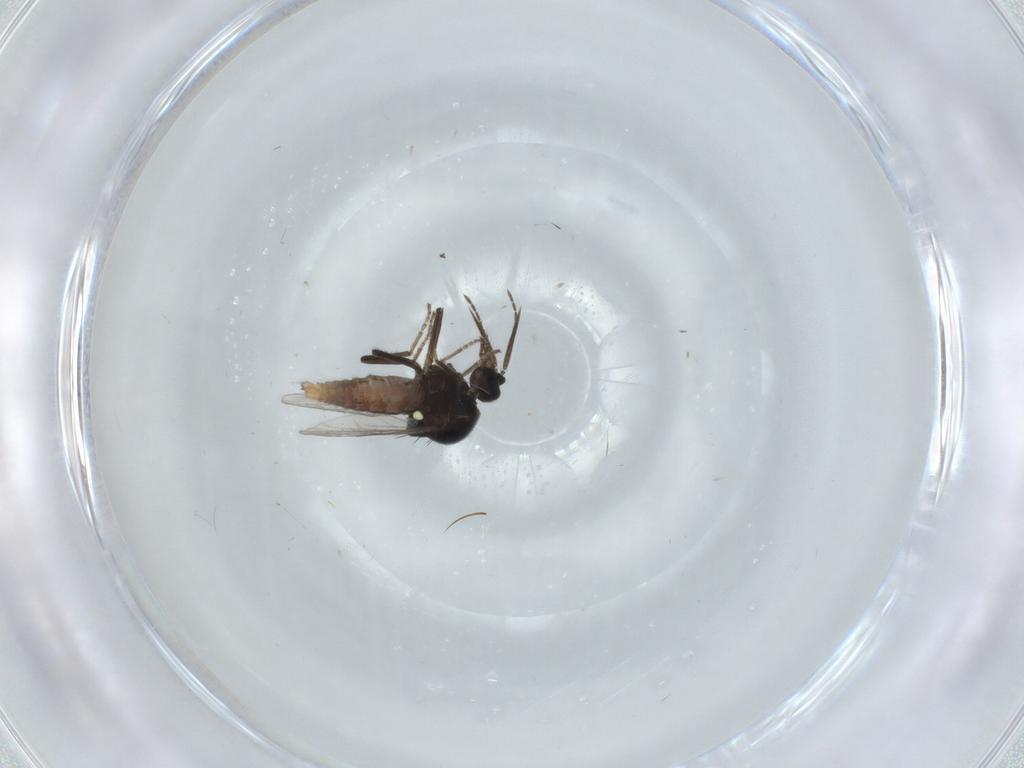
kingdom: Animalia
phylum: Arthropoda
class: Insecta
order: Diptera
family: Ceratopogonidae
